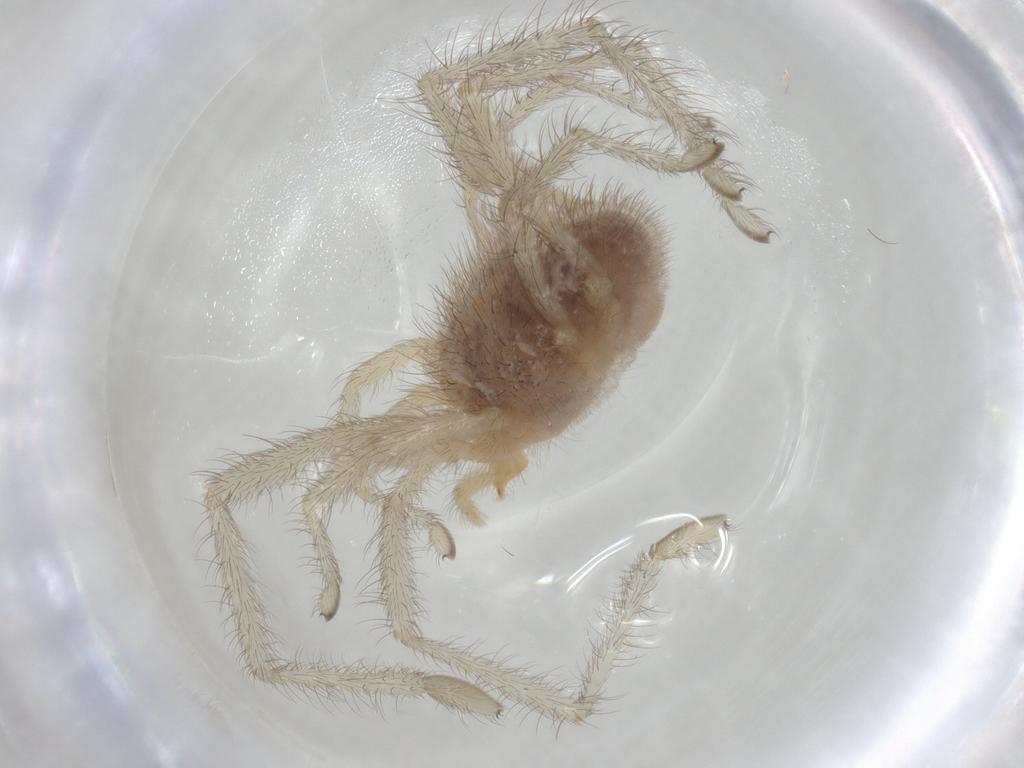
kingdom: Animalia
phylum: Arthropoda
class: Arachnida
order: Trombidiformes
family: Erythraeidae
